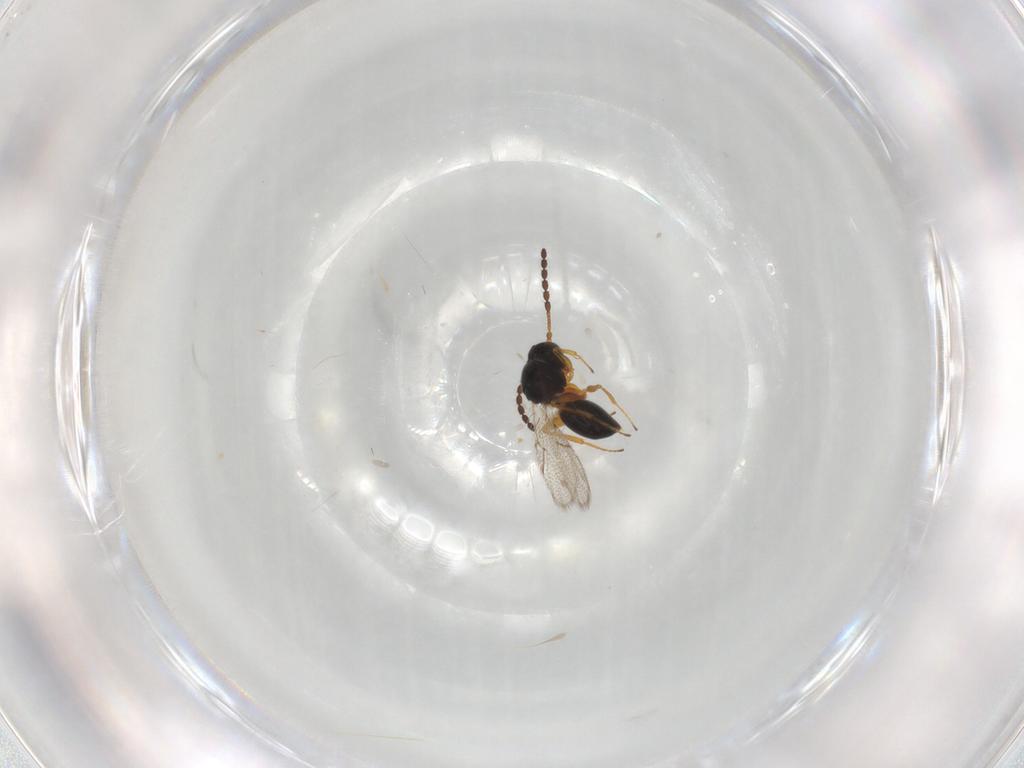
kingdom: Animalia
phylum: Arthropoda
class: Insecta
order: Hymenoptera
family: Figitidae
